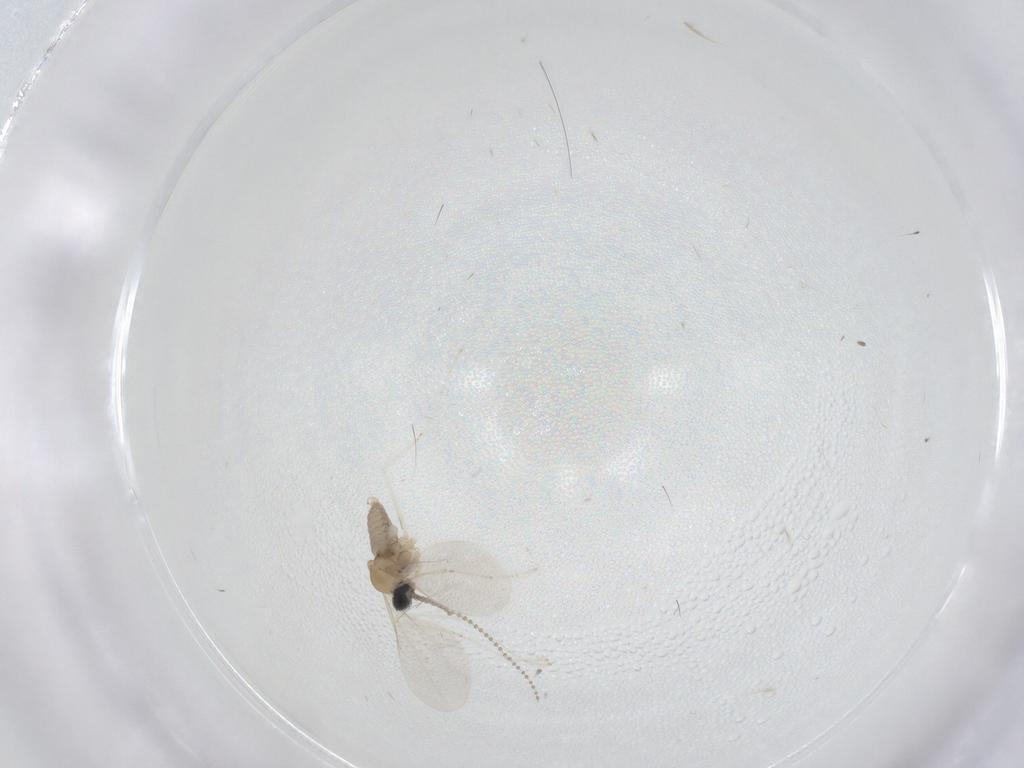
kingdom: Animalia
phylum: Arthropoda
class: Insecta
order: Diptera
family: Cecidomyiidae
